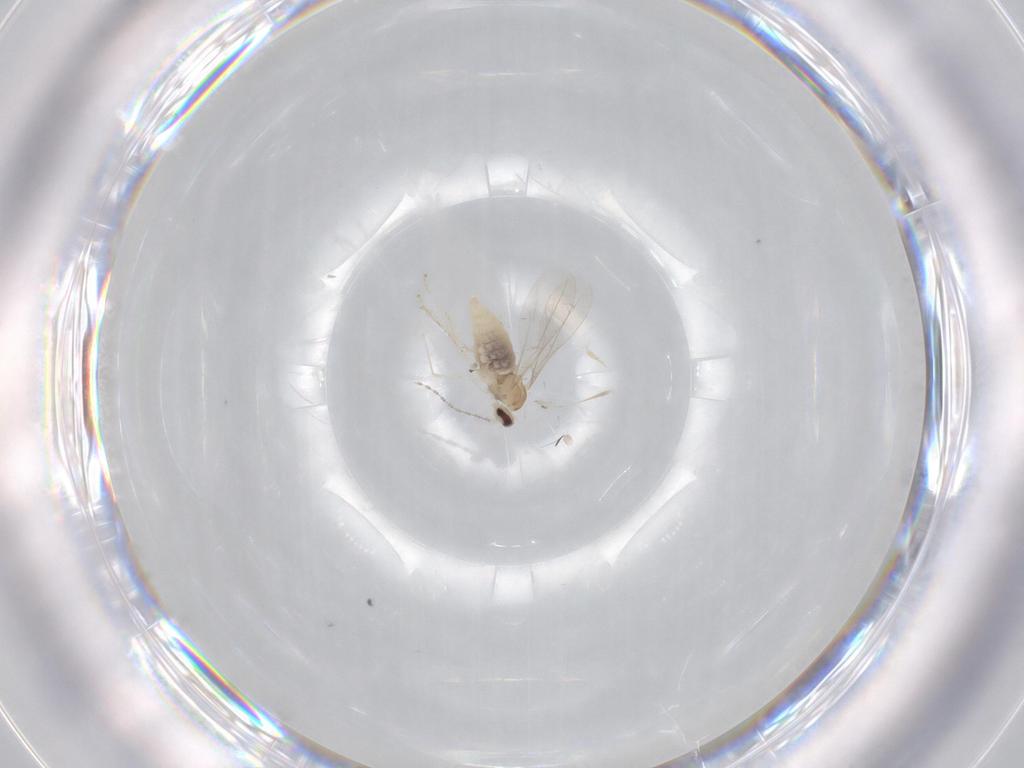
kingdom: Animalia
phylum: Arthropoda
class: Insecta
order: Diptera
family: Cecidomyiidae
